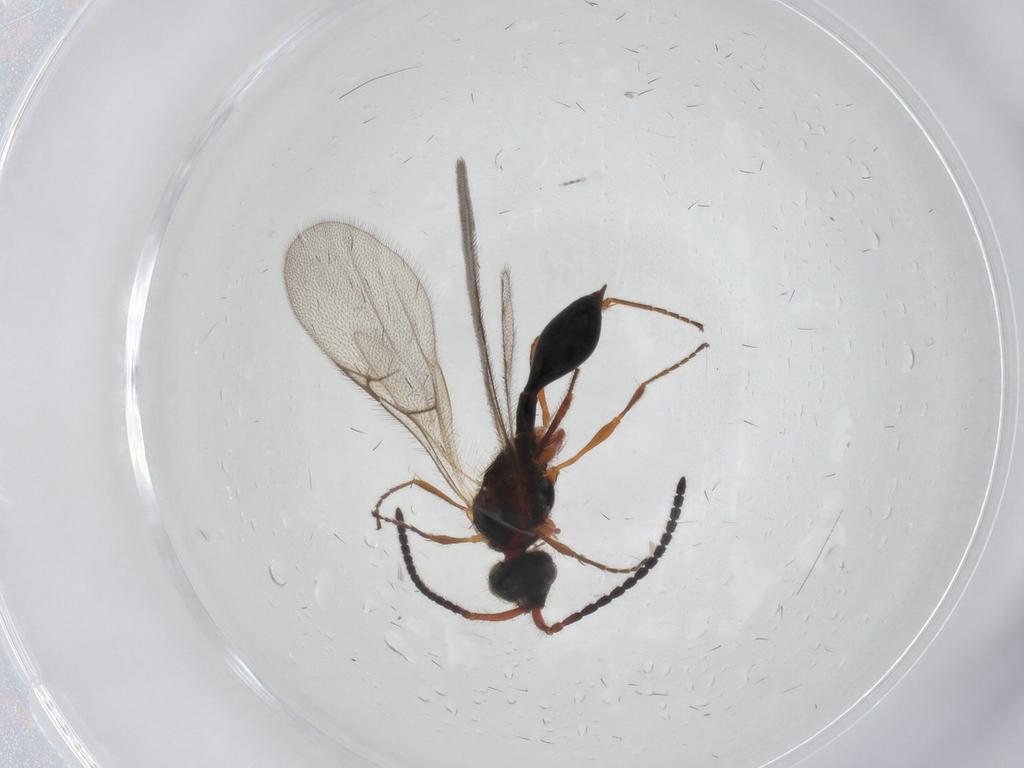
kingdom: Animalia
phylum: Arthropoda
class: Insecta
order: Hymenoptera
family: Diapriidae
